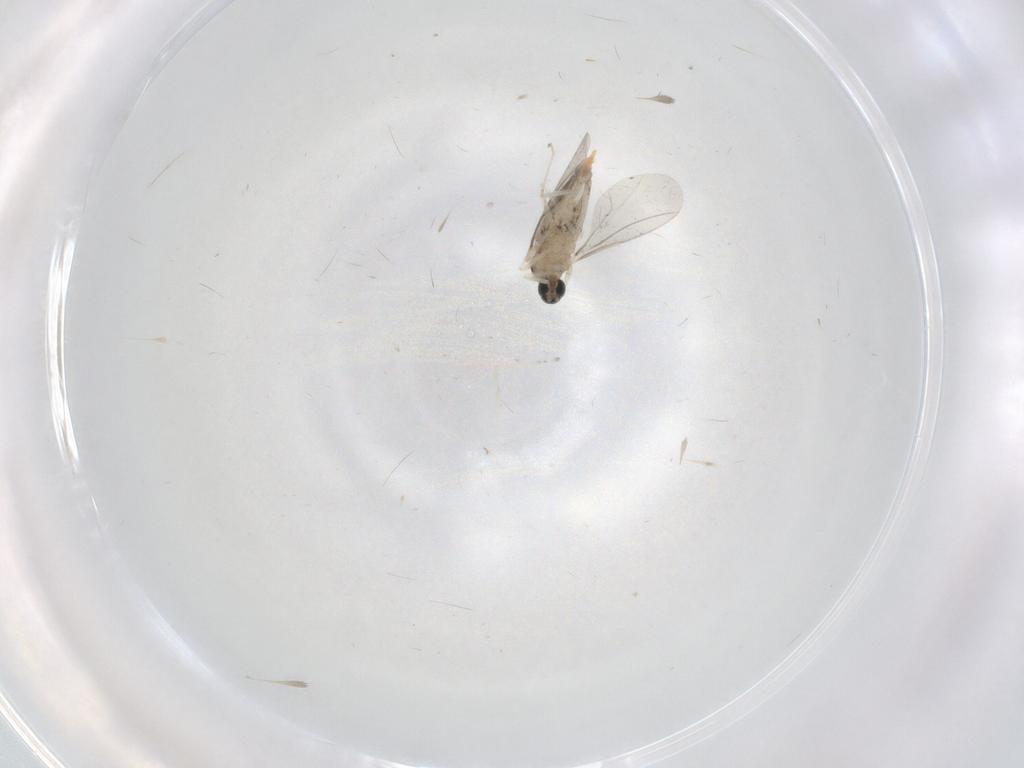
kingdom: Animalia
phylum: Arthropoda
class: Insecta
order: Diptera
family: Cecidomyiidae
